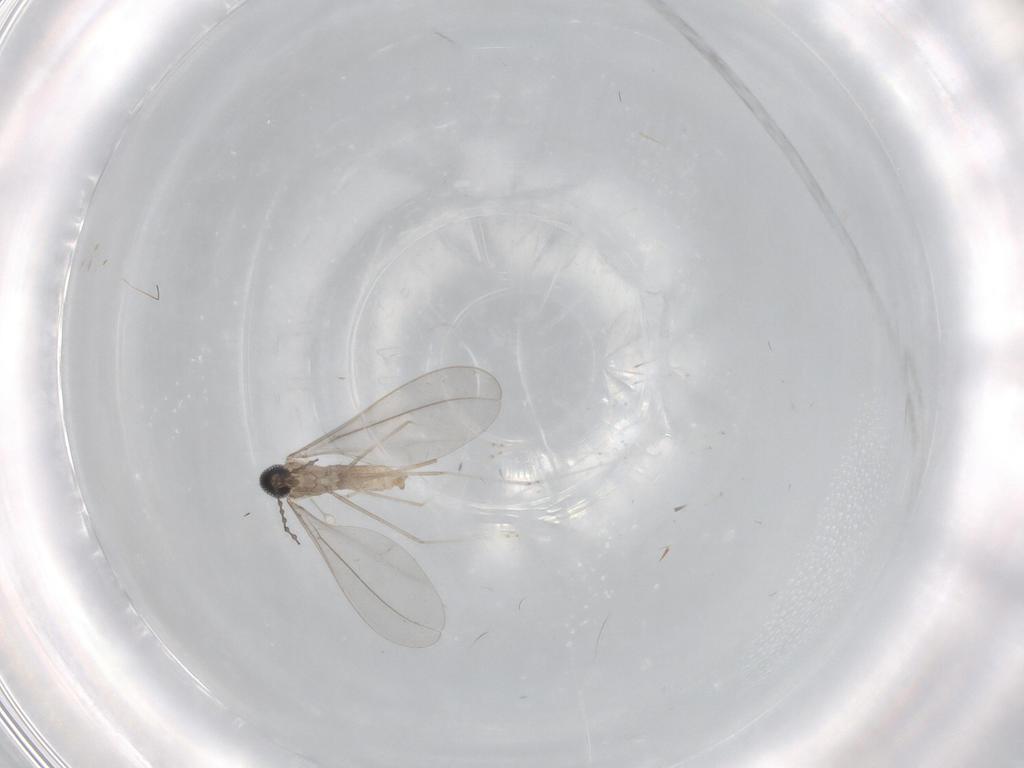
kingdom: Animalia
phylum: Arthropoda
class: Insecta
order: Diptera
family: Cecidomyiidae
